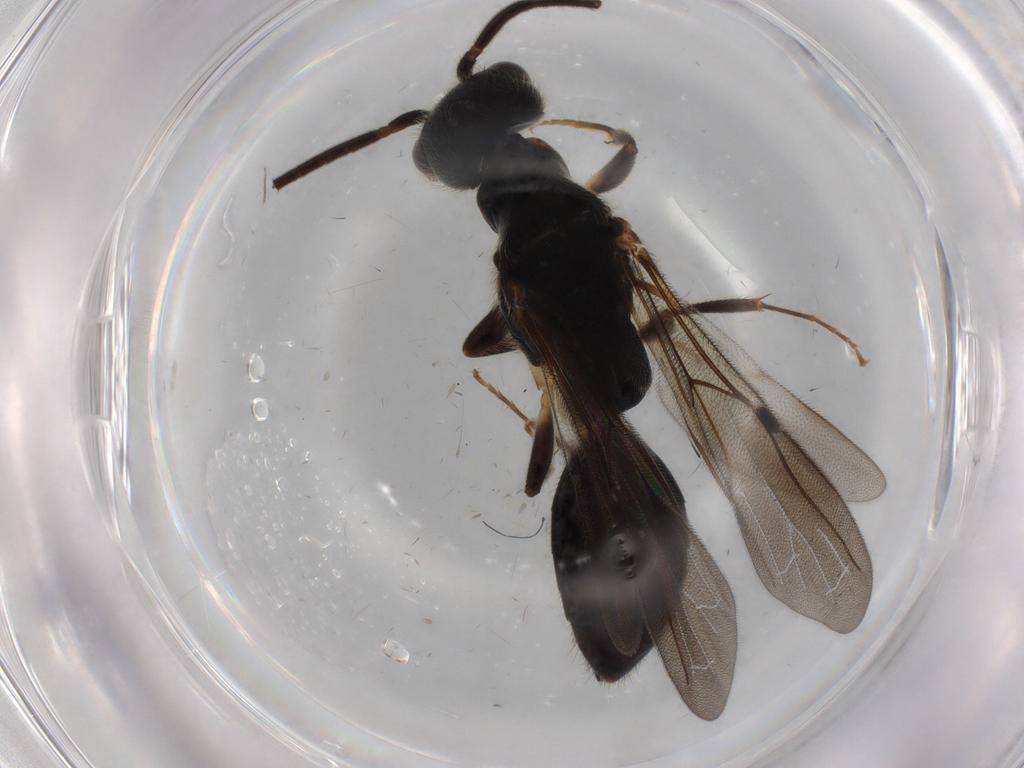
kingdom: Animalia
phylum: Arthropoda
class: Insecta
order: Hymenoptera
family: Bethylidae
